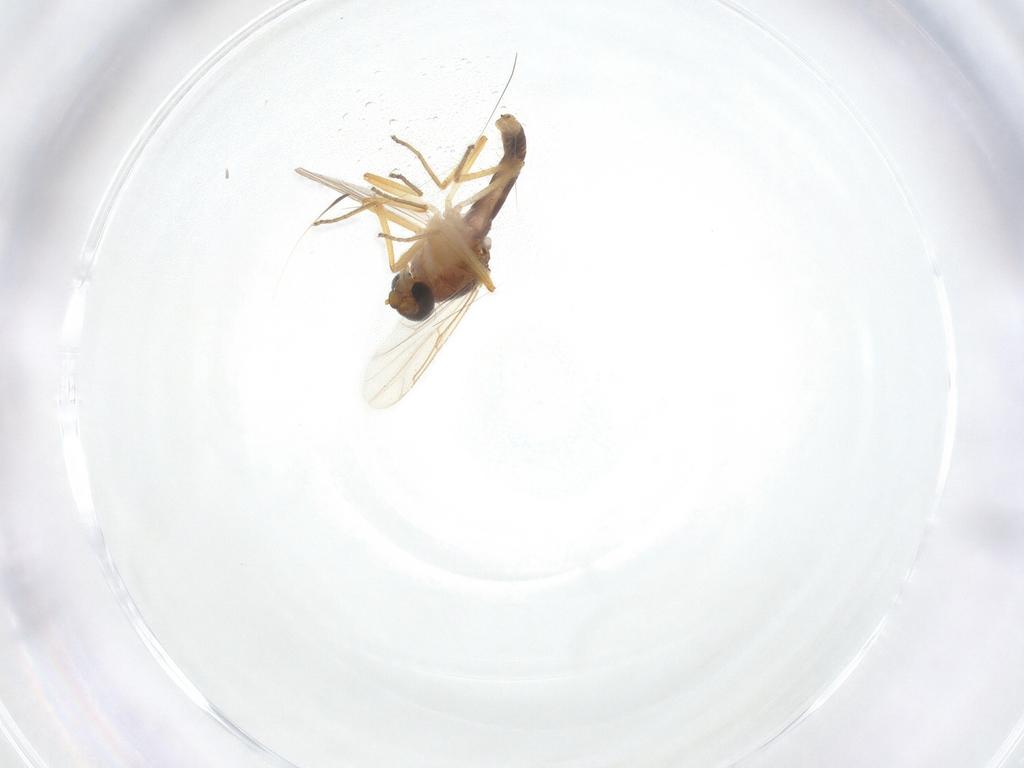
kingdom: Animalia
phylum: Arthropoda
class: Insecta
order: Diptera
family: Ceratopogonidae
